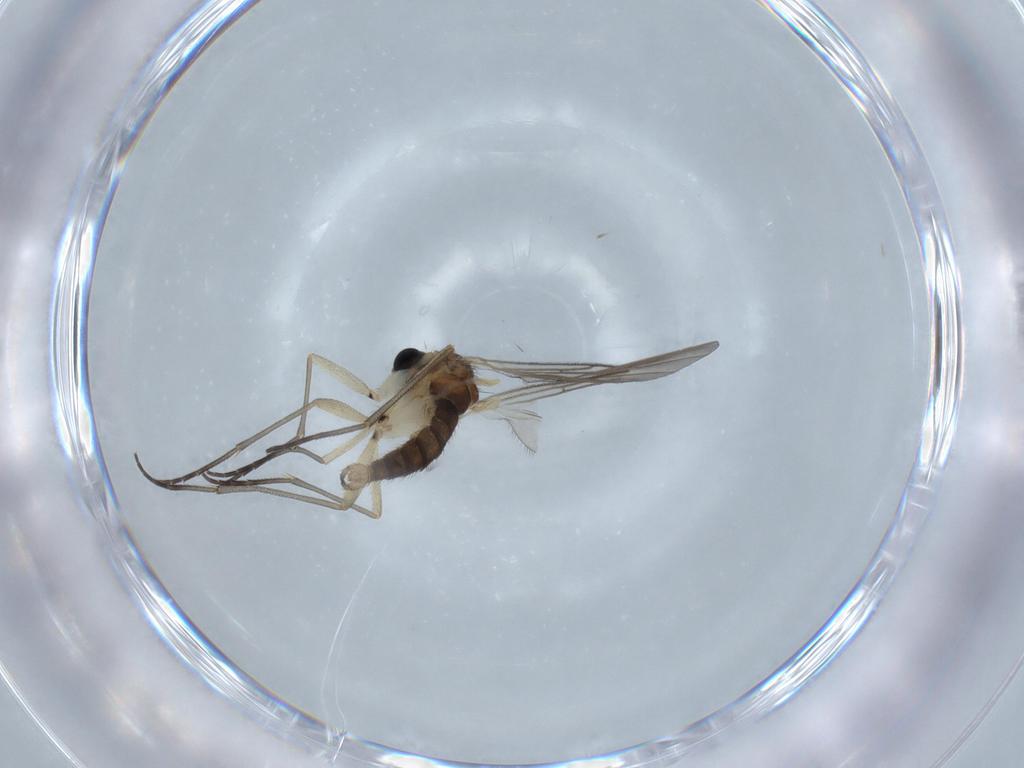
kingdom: Animalia
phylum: Arthropoda
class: Insecta
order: Diptera
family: Sciaridae
